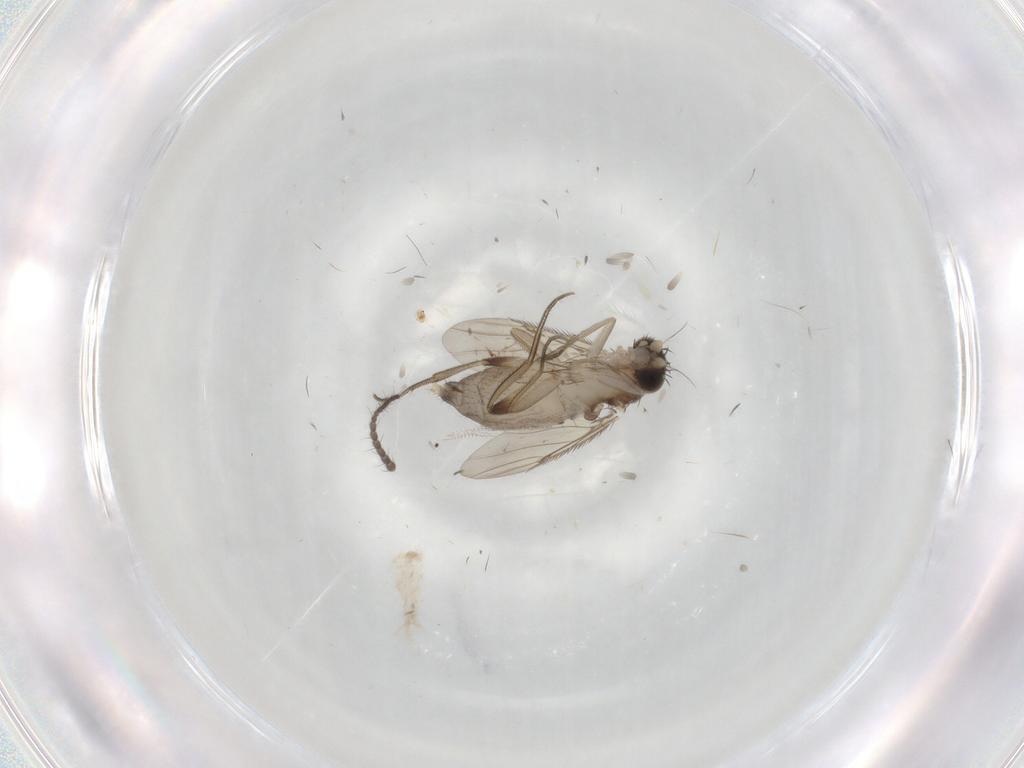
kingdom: Animalia
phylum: Arthropoda
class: Insecta
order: Diptera
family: Phoridae
